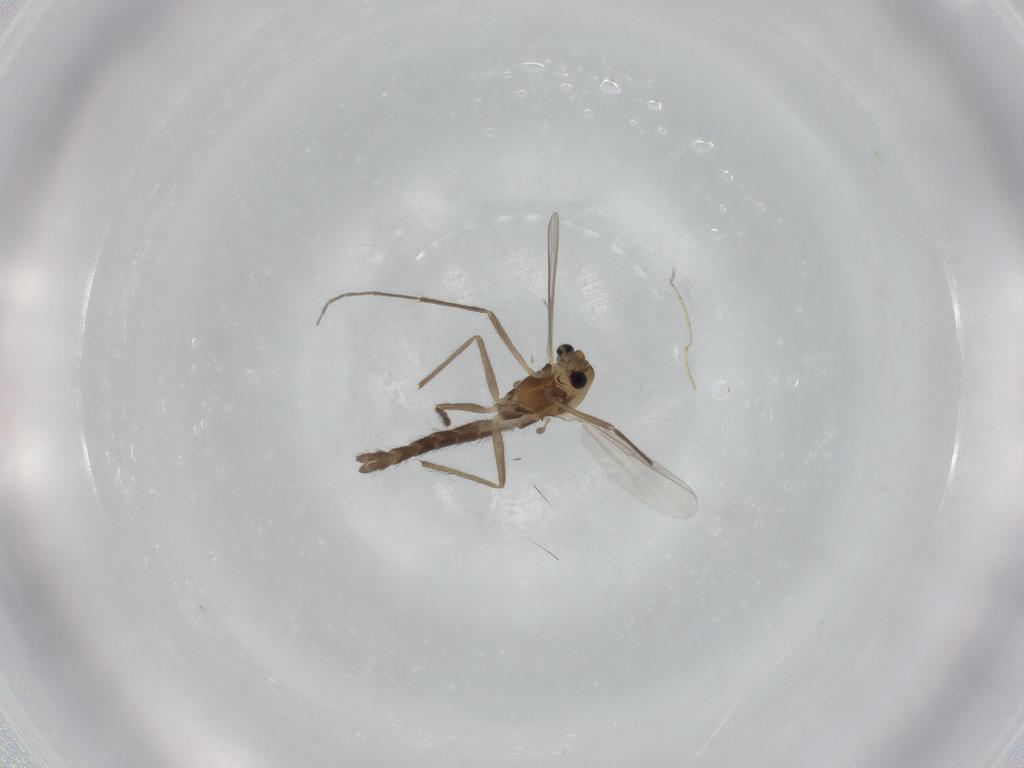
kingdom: Animalia
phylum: Arthropoda
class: Insecta
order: Diptera
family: Chironomidae
